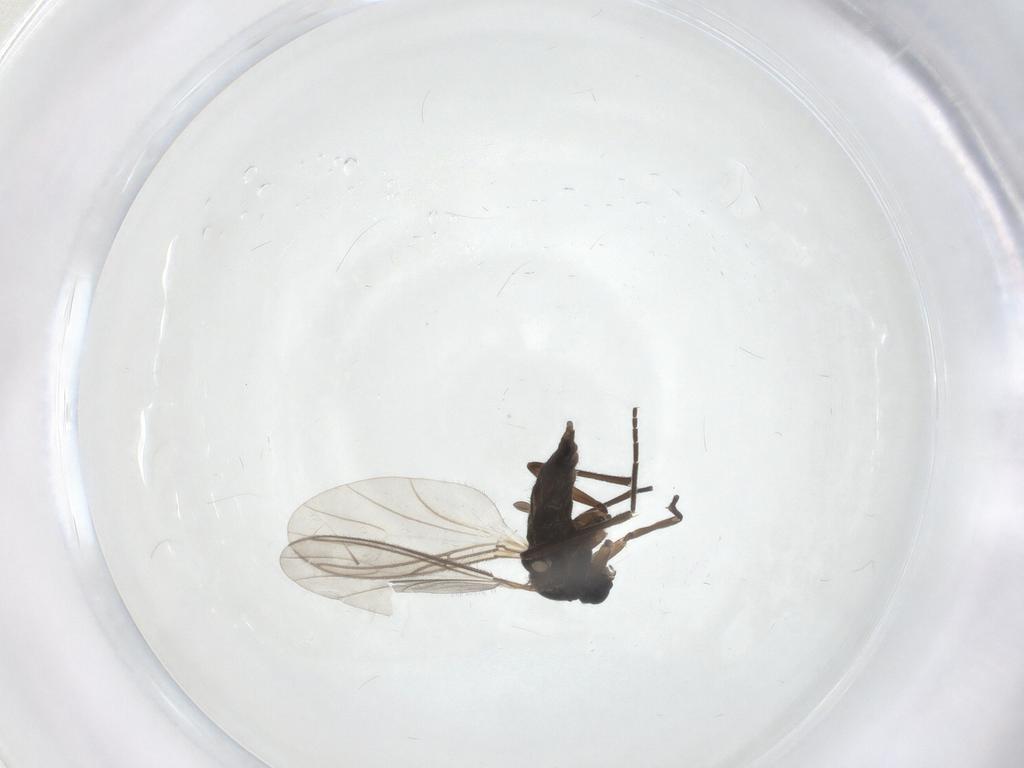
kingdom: Animalia
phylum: Arthropoda
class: Insecta
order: Diptera
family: Sciaridae
